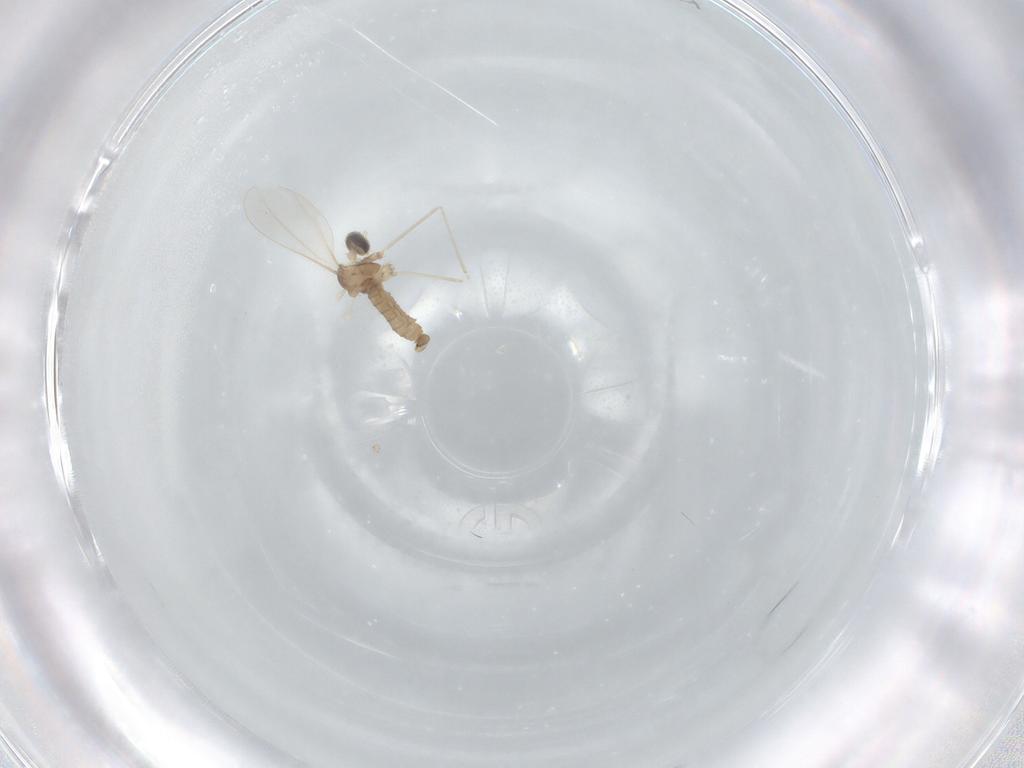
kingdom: Animalia
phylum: Arthropoda
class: Insecta
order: Diptera
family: Cecidomyiidae
